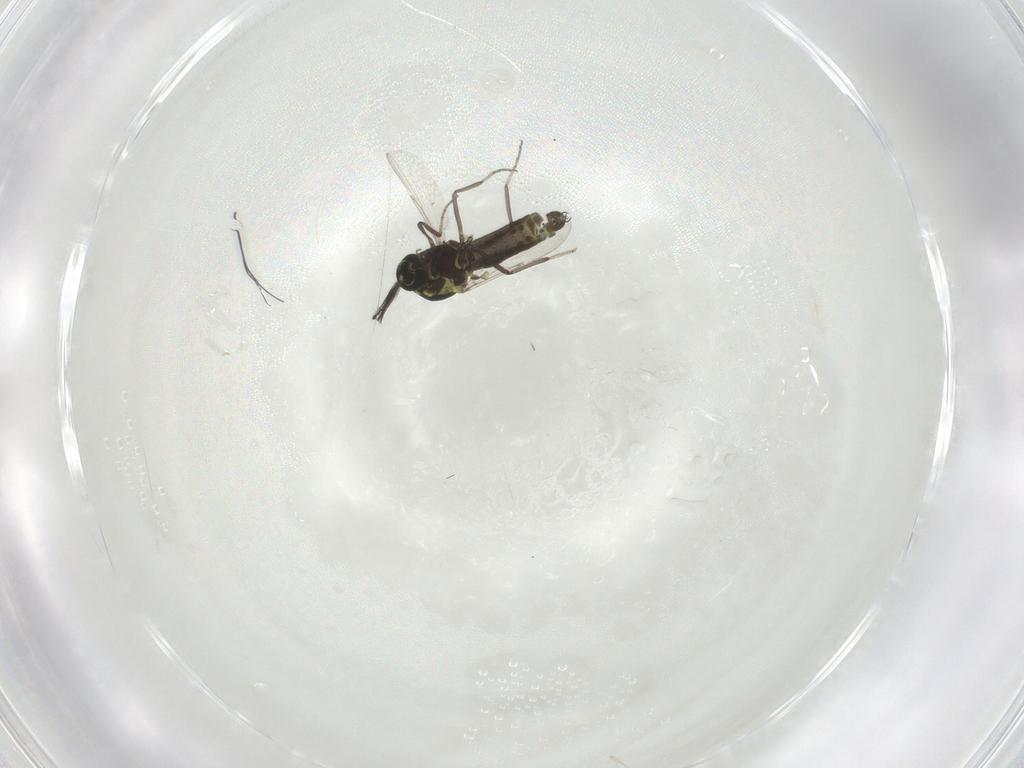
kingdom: Animalia
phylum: Arthropoda
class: Insecta
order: Diptera
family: Ceratopogonidae
